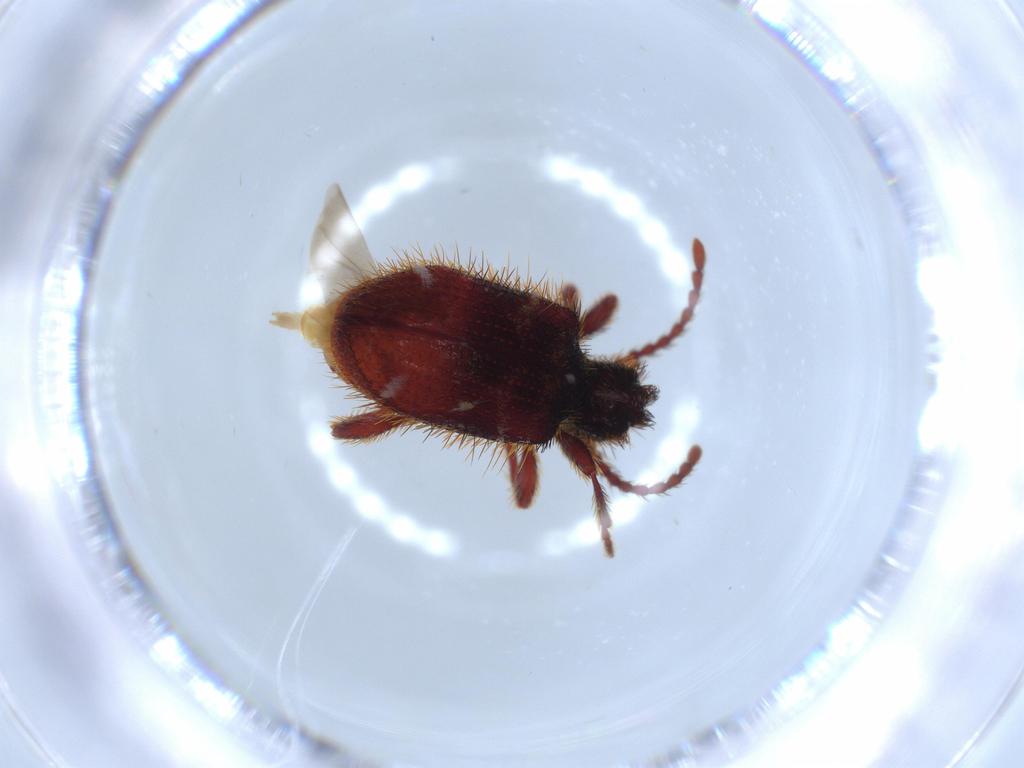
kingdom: Animalia
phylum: Arthropoda
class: Insecta
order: Coleoptera
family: Ptinidae
